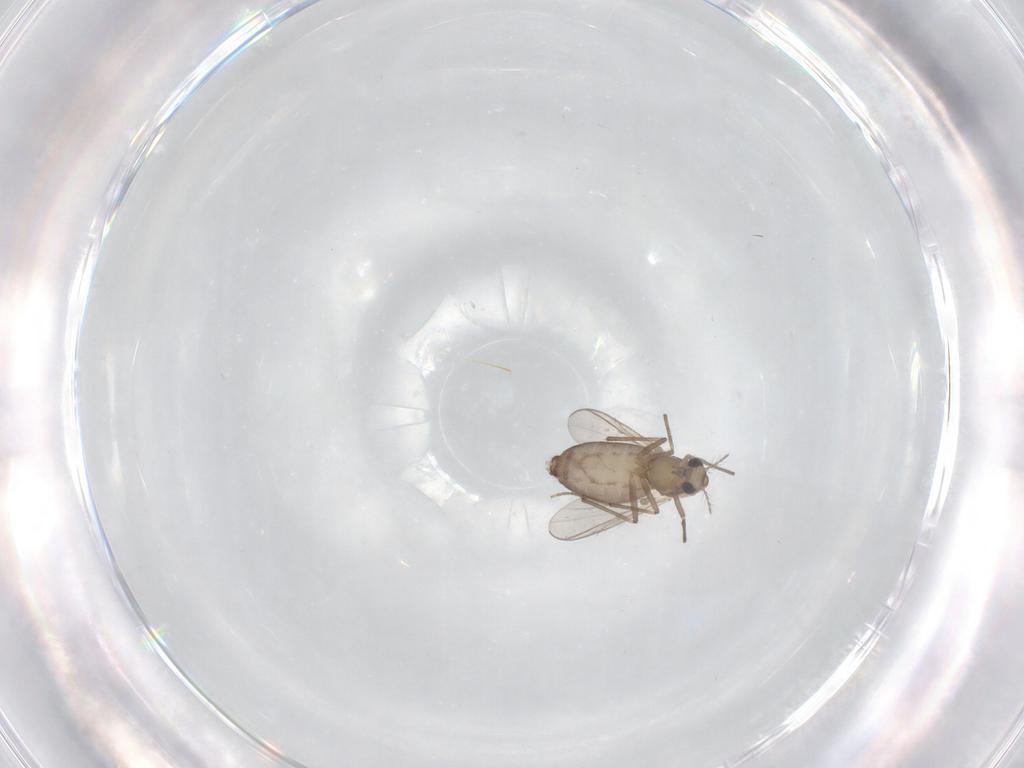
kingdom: Animalia
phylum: Arthropoda
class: Insecta
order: Diptera
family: Chironomidae
